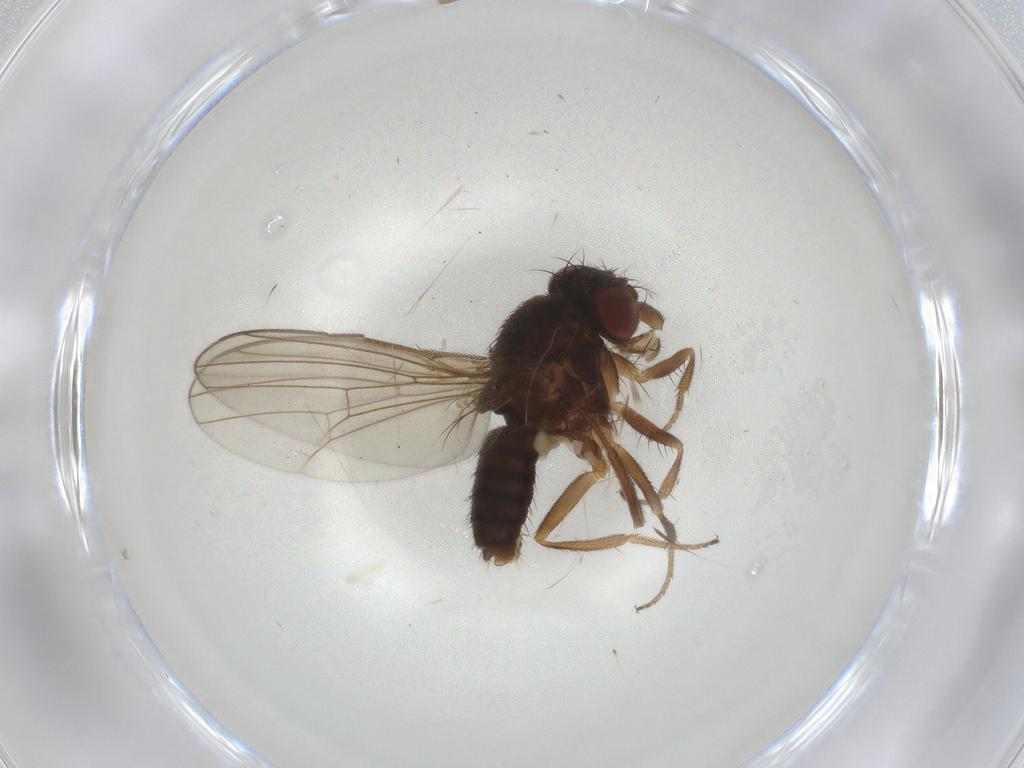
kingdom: Animalia
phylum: Arthropoda
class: Insecta
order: Diptera
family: Drosophilidae
